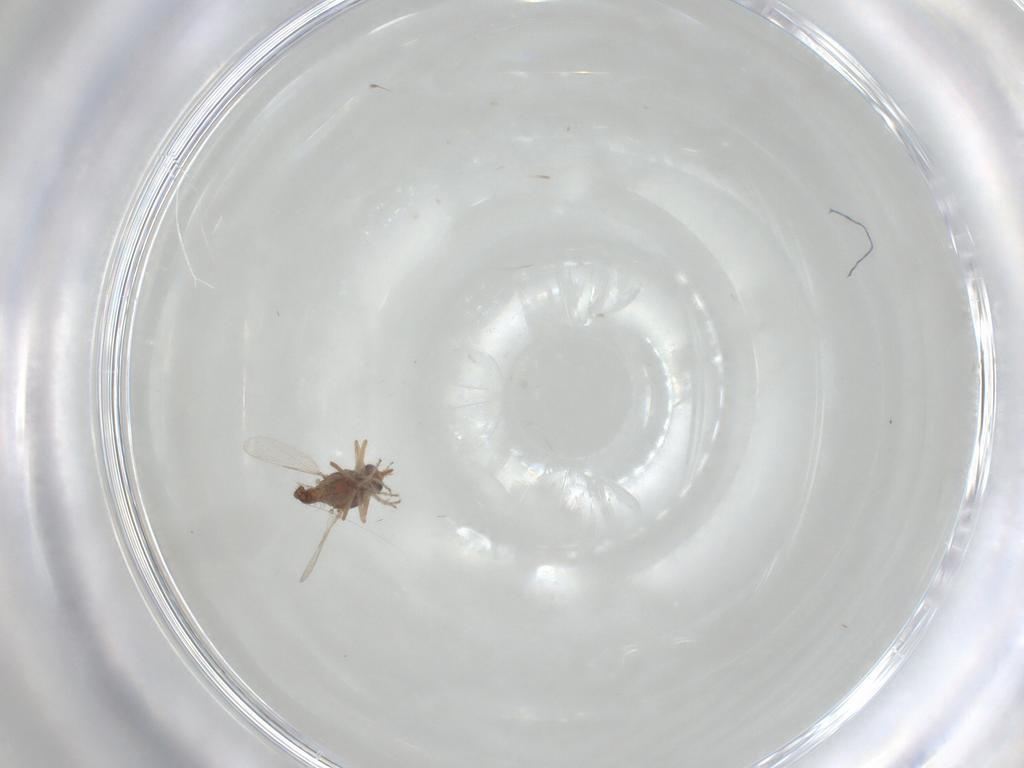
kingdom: Animalia
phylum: Arthropoda
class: Insecta
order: Diptera
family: Ceratopogonidae
